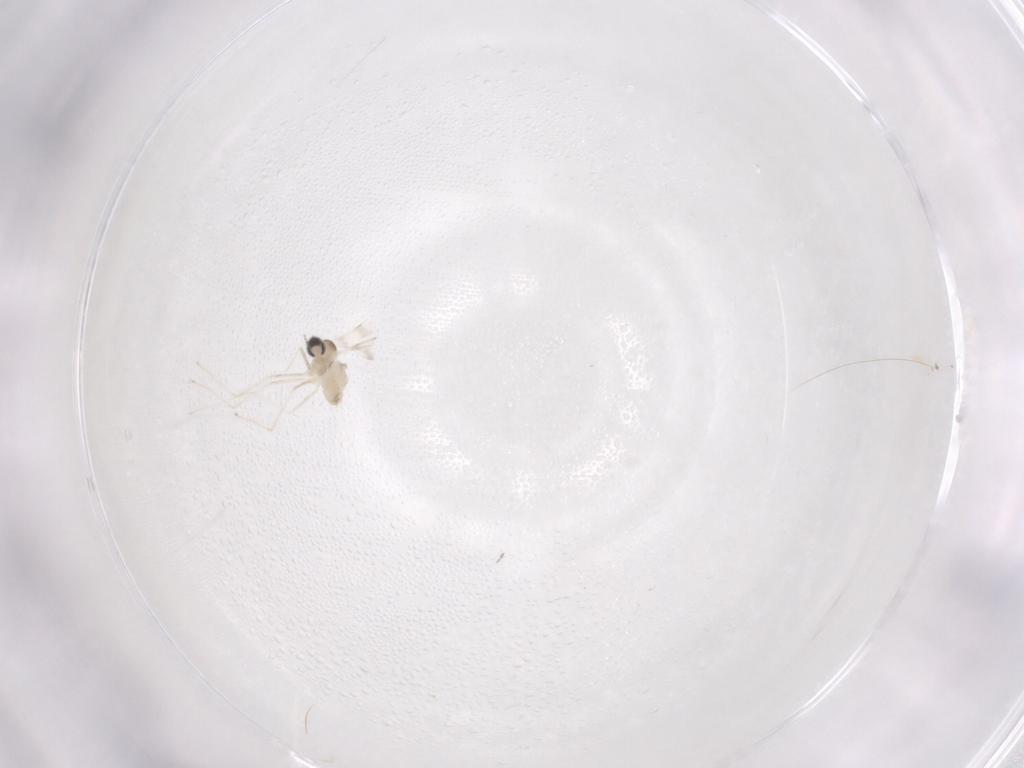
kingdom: Animalia
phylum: Arthropoda
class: Insecta
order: Diptera
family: Cecidomyiidae
